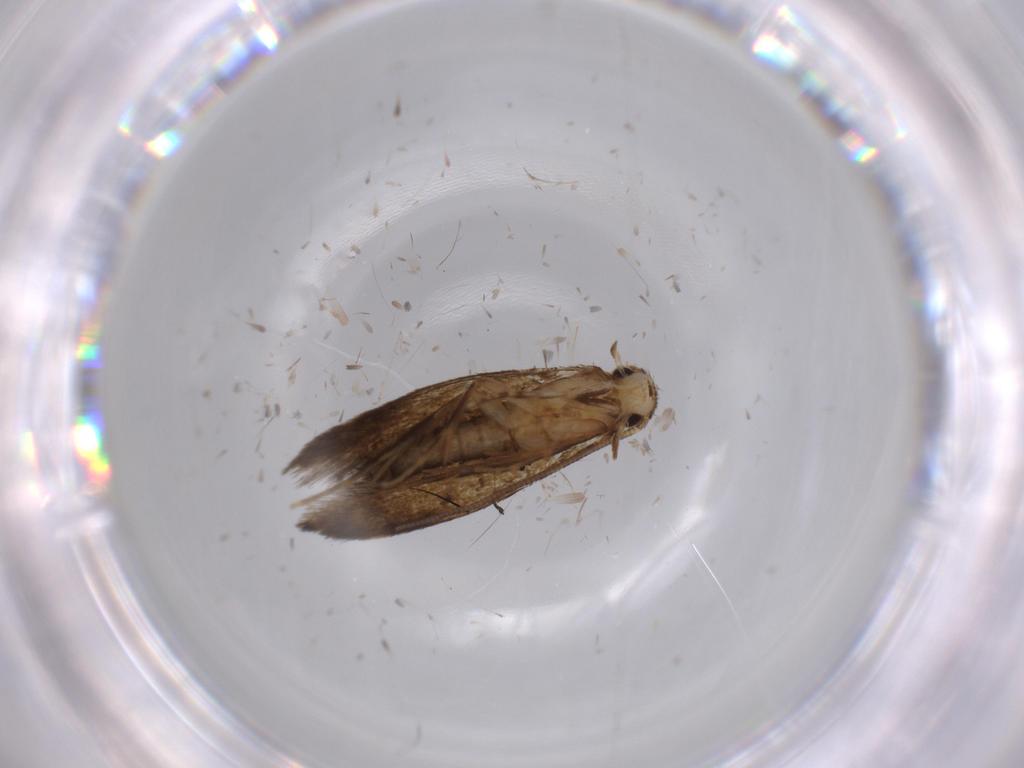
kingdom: Animalia
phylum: Arthropoda
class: Insecta
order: Lepidoptera
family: Tineidae
